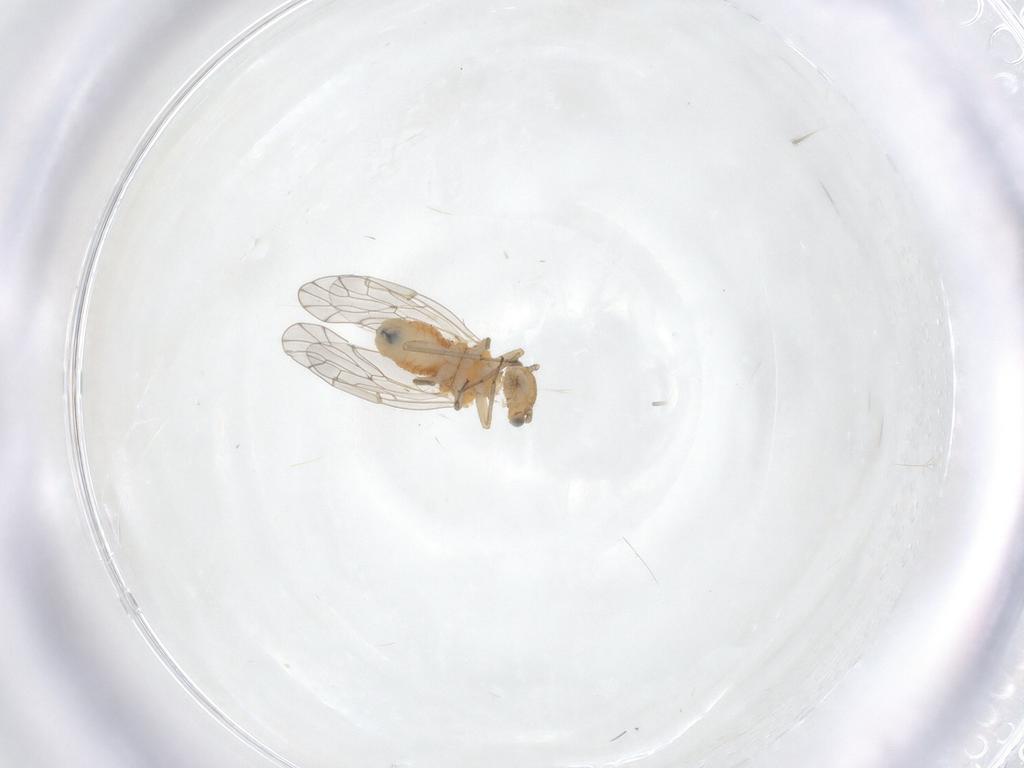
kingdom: Animalia
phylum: Arthropoda
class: Insecta
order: Psocodea
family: Ectopsocidae
